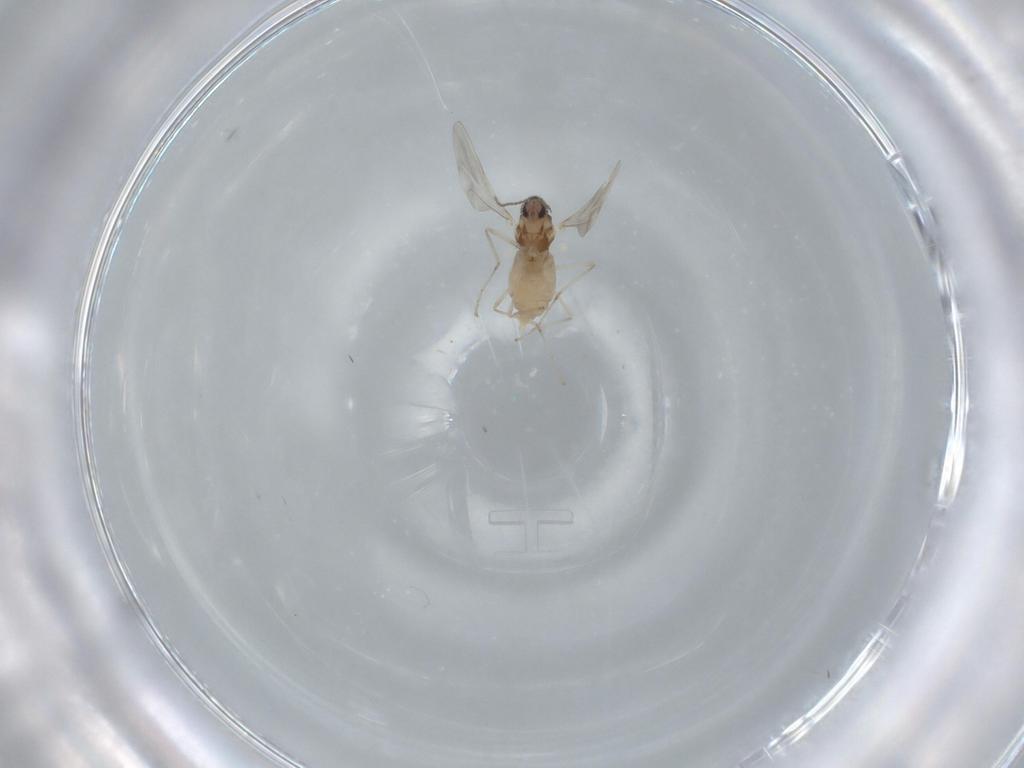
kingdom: Animalia
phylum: Arthropoda
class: Insecta
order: Diptera
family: Cecidomyiidae
